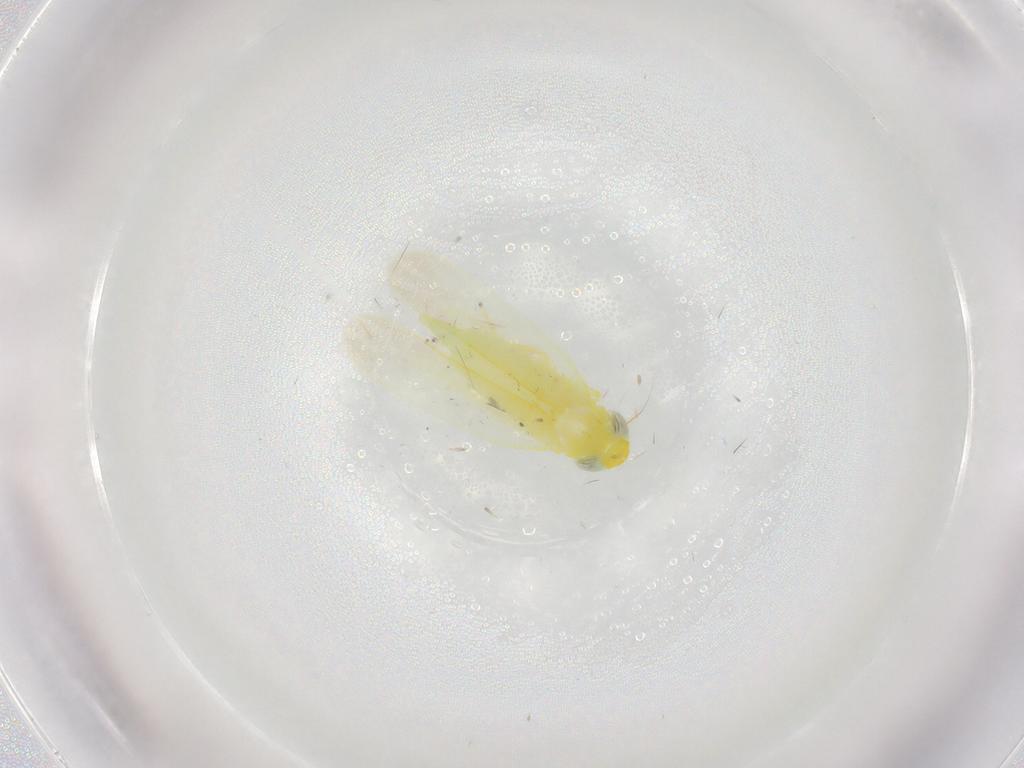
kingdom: Animalia
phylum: Arthropoda
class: Insecta
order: Hemiptera
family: Cicadellidae
